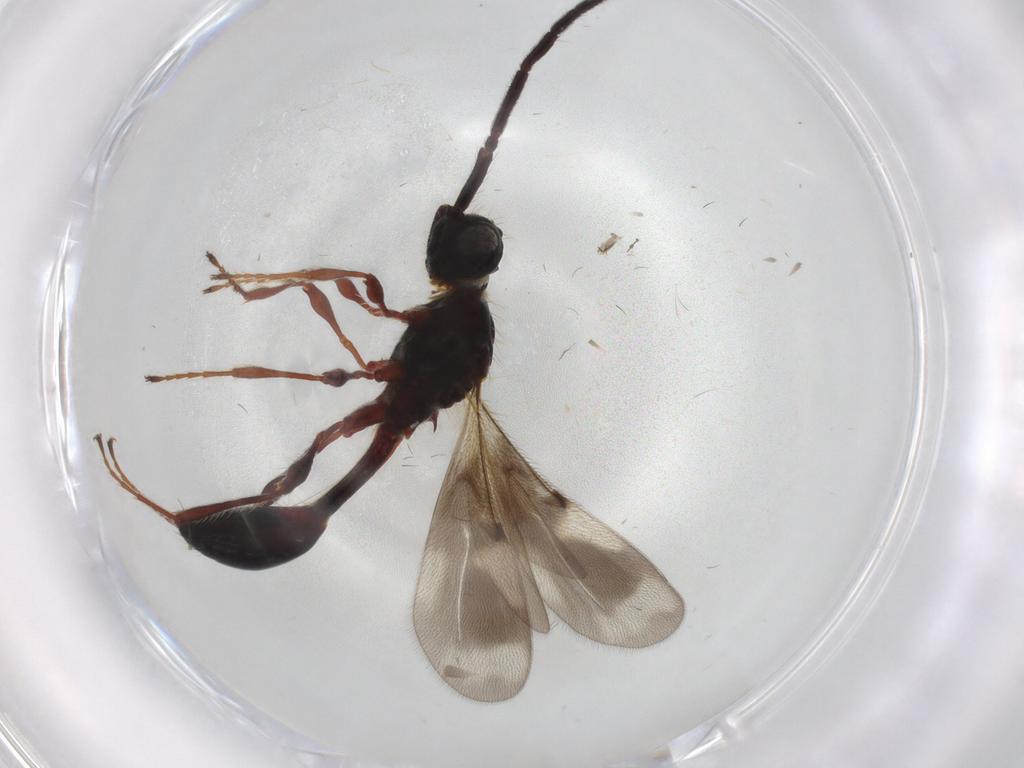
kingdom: Animalia
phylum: Arthropoda
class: Insecta
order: Hymenoptera
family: Diapriidae
